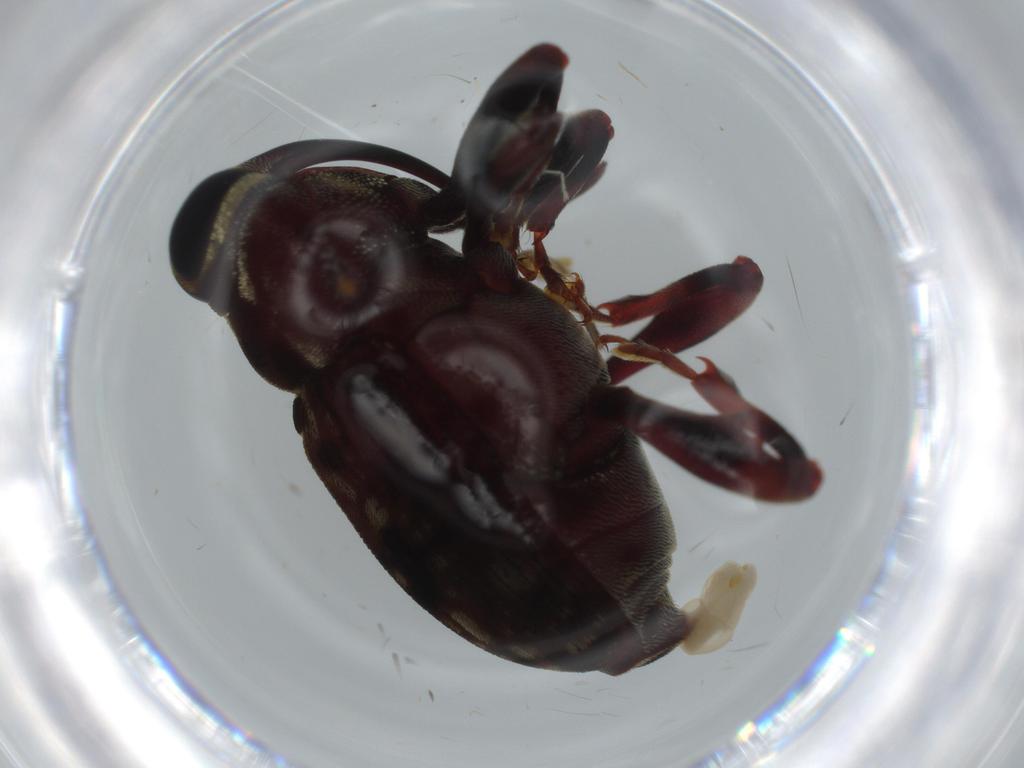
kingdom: Animalia
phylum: Arthropoda
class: Insecta
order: Coleoptera
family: Curculionidae
